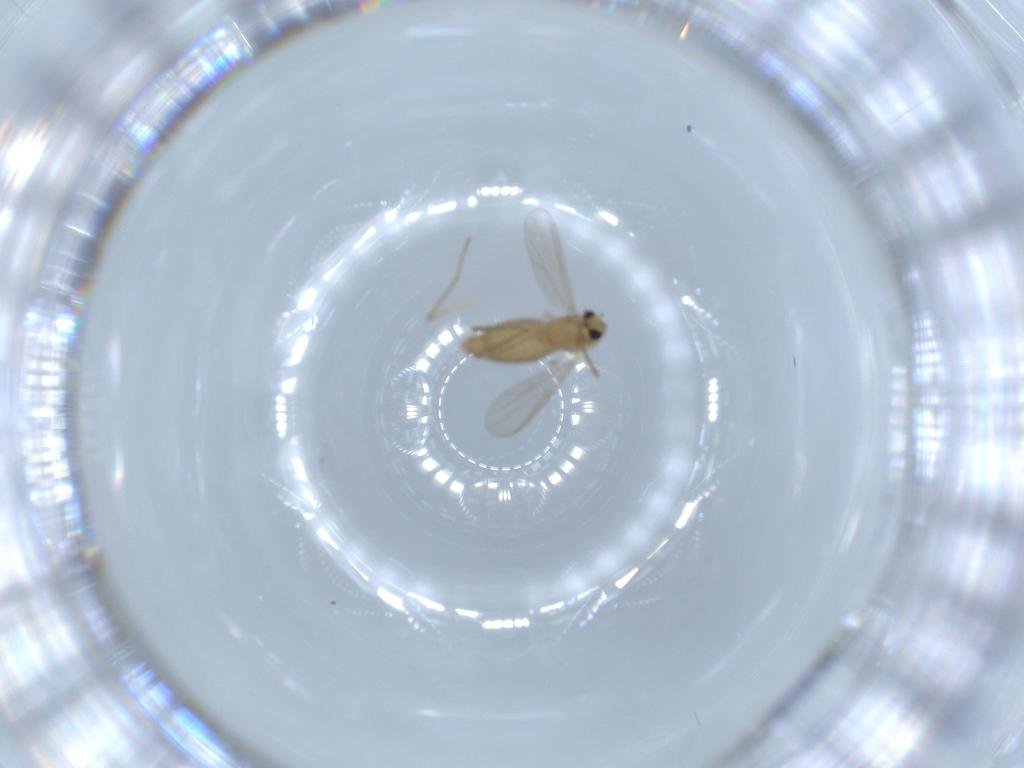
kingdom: Animalia
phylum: Arthropoda
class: Insecta
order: Diptera
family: Chironomidae
